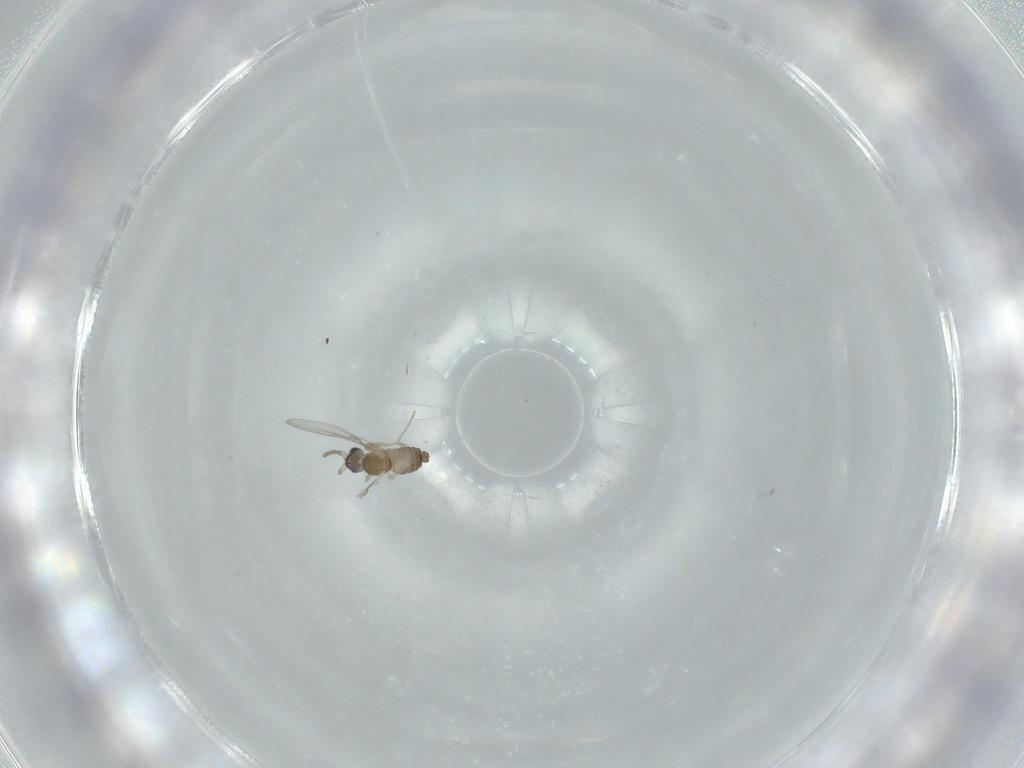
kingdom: Animalia
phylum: Arthropoda
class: Insecta
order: Diptera
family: Cecidomyiidae
